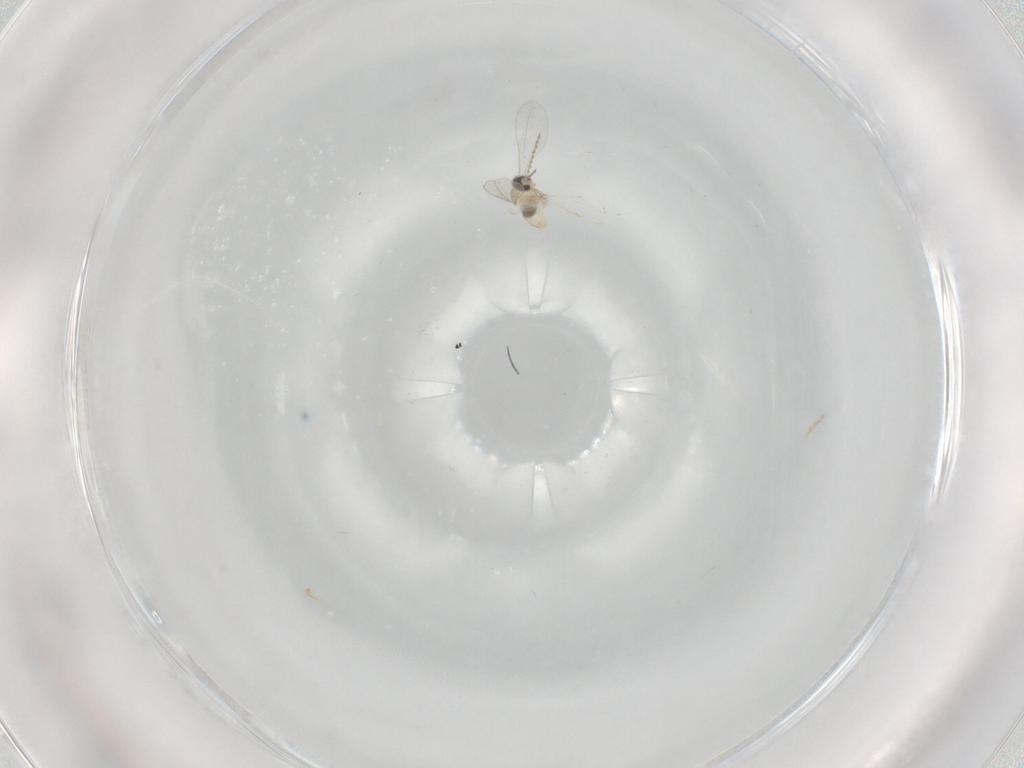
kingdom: Animalia
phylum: Arthropoda
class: Insecta
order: Diptera
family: Cecidomyiidae
